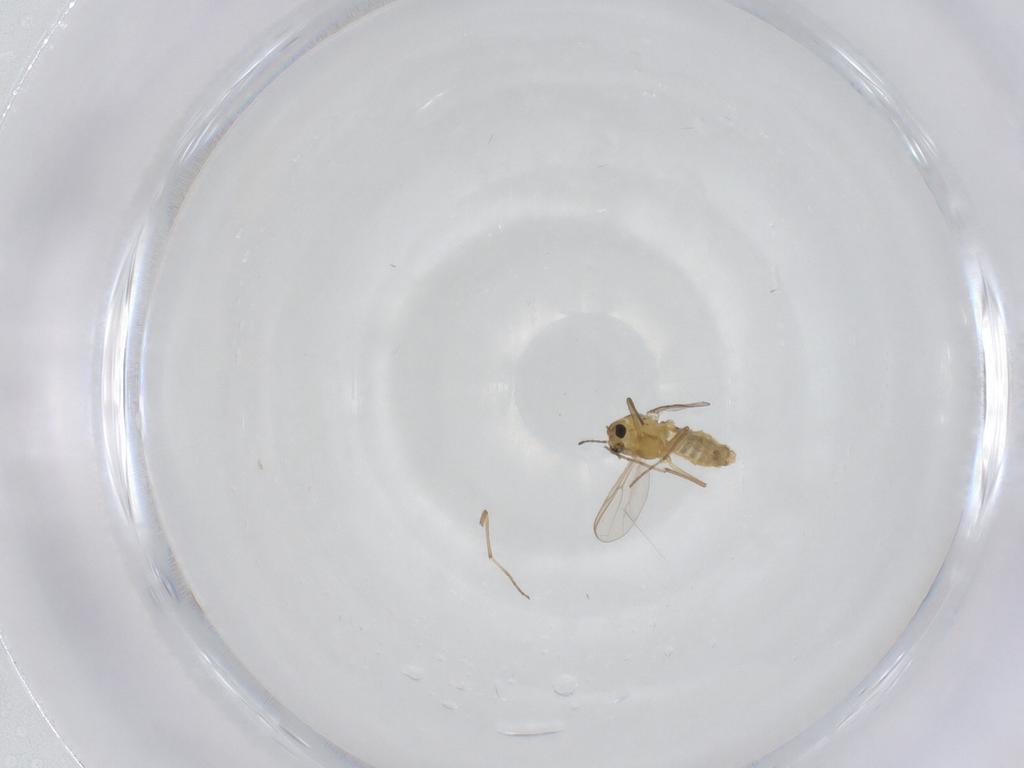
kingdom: Animalia
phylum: Arthropoda
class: Insecta
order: Diptera
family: Chironomidae
